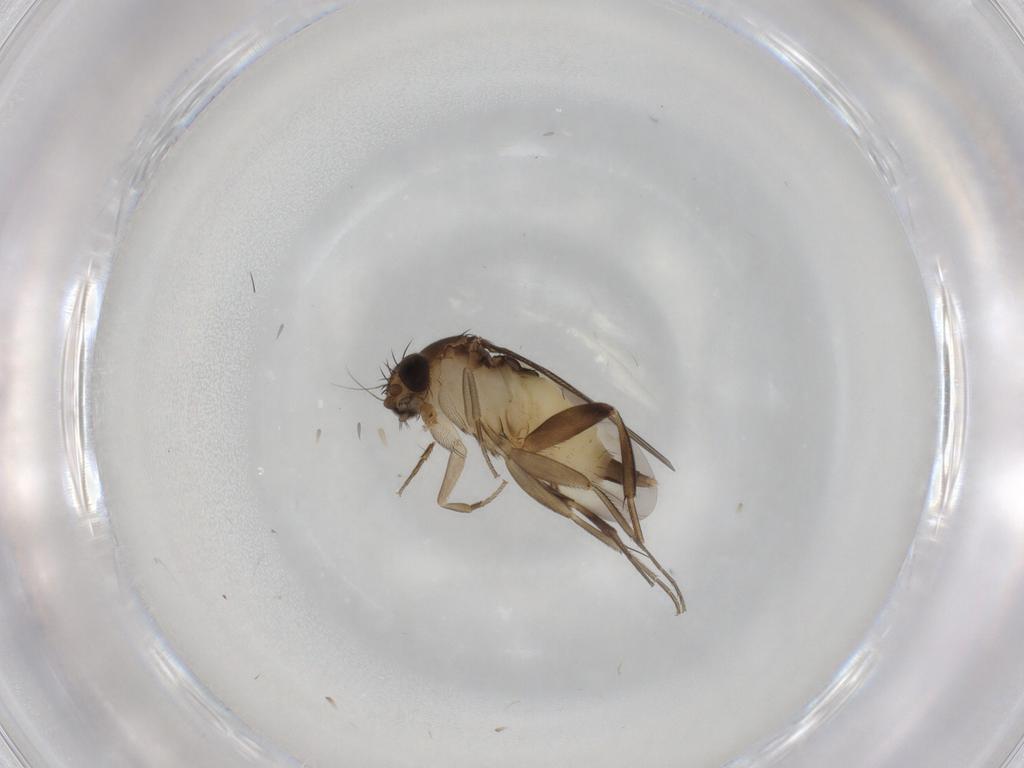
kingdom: Animalia
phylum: Arthropoda
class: Insecta
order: Diptera
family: Phoridae
